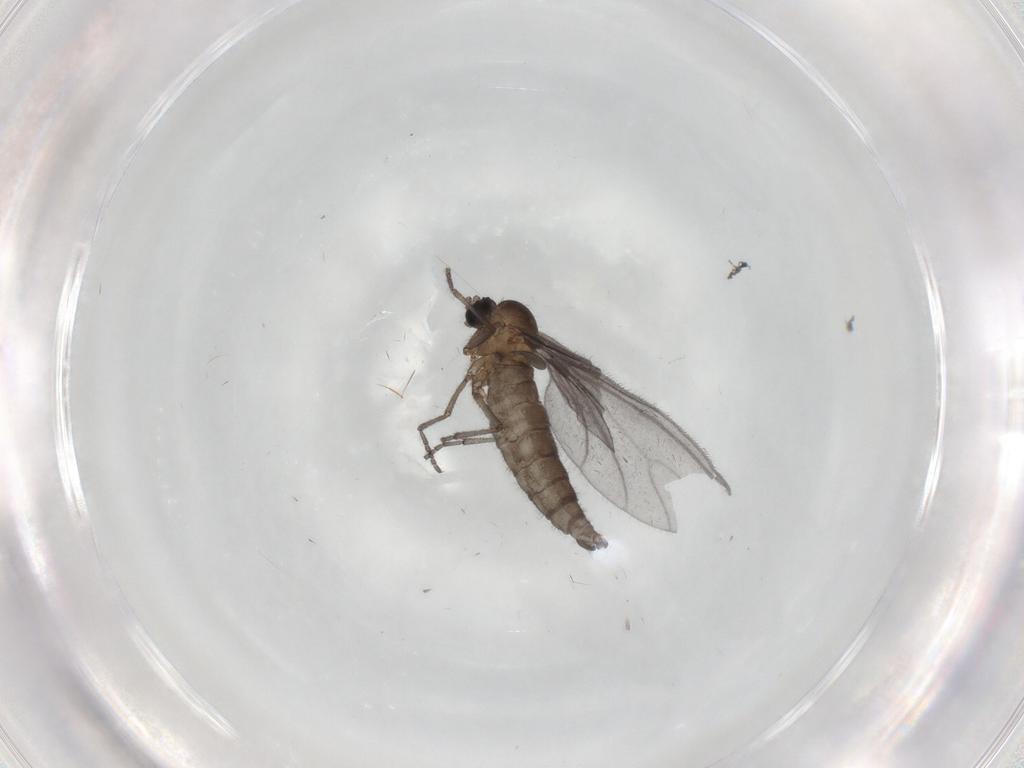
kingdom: Animalia
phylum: Arthropoda
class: Insecta
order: Diptera
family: Sciaridae
